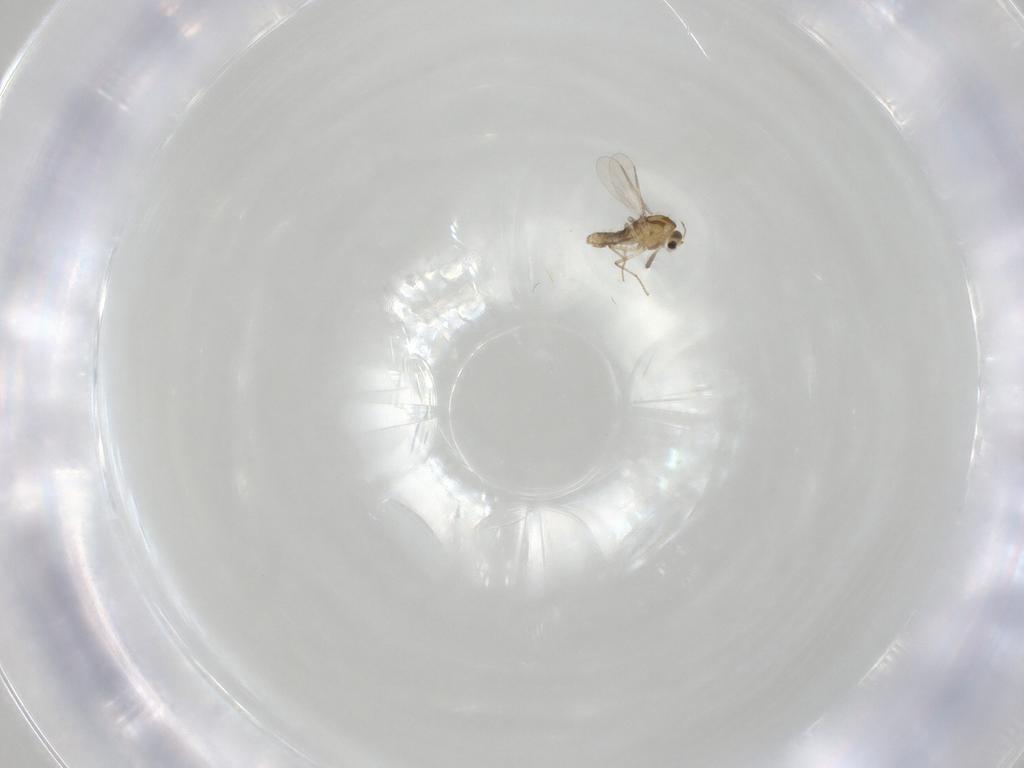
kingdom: Animalia
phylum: Arthropoda
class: Insecta
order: Diptera
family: Chironomidae
